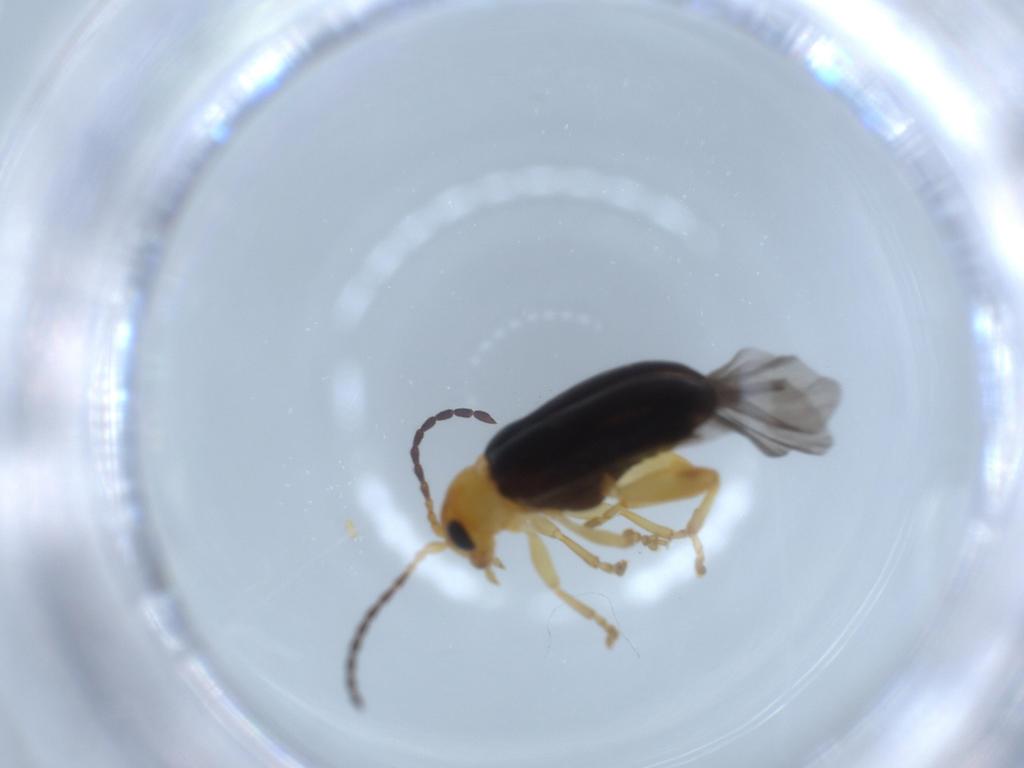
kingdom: Animalia
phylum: Arthropoda
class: Insecta
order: Coleoptera
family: Chrysomelidae
